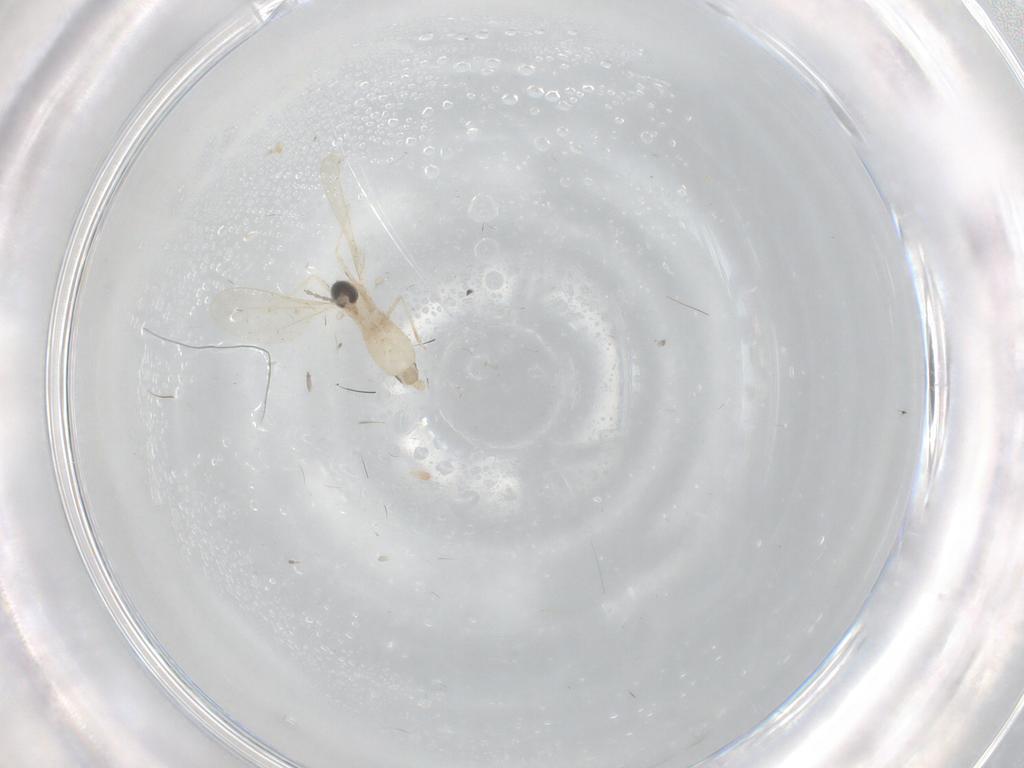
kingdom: Animalia
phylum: Arthropoda
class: Insecta
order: Diptera
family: Cecidomyiidae
